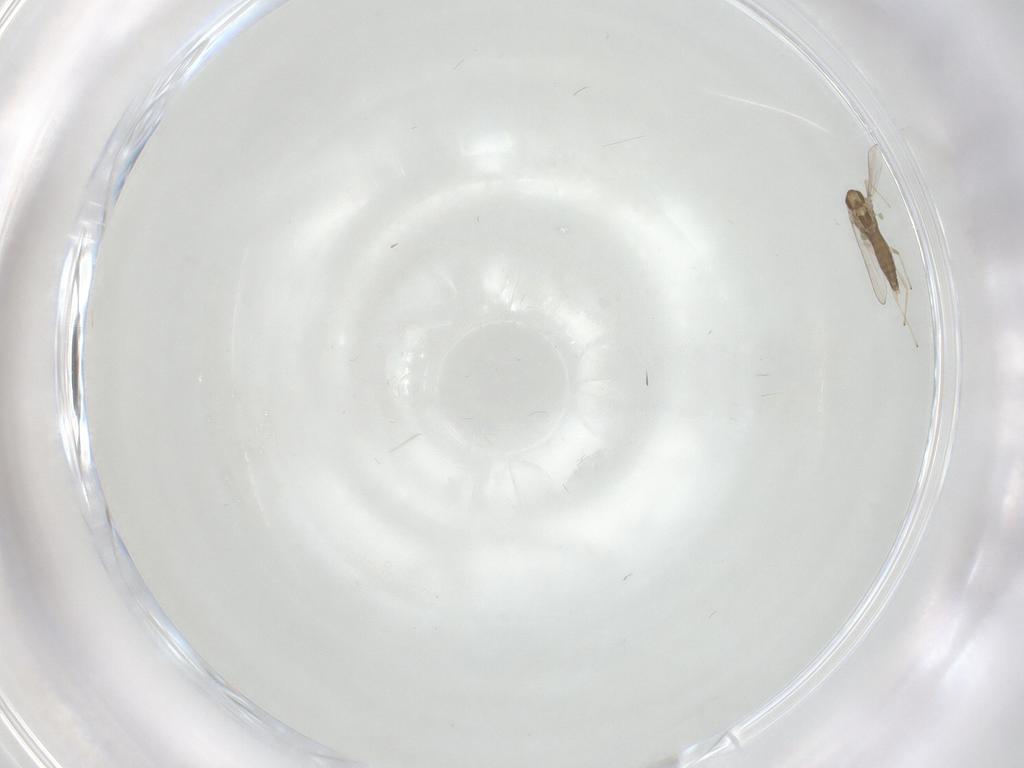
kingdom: Animalia
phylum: Arthropoda
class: Insecta
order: Diptera
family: Chironomidae
